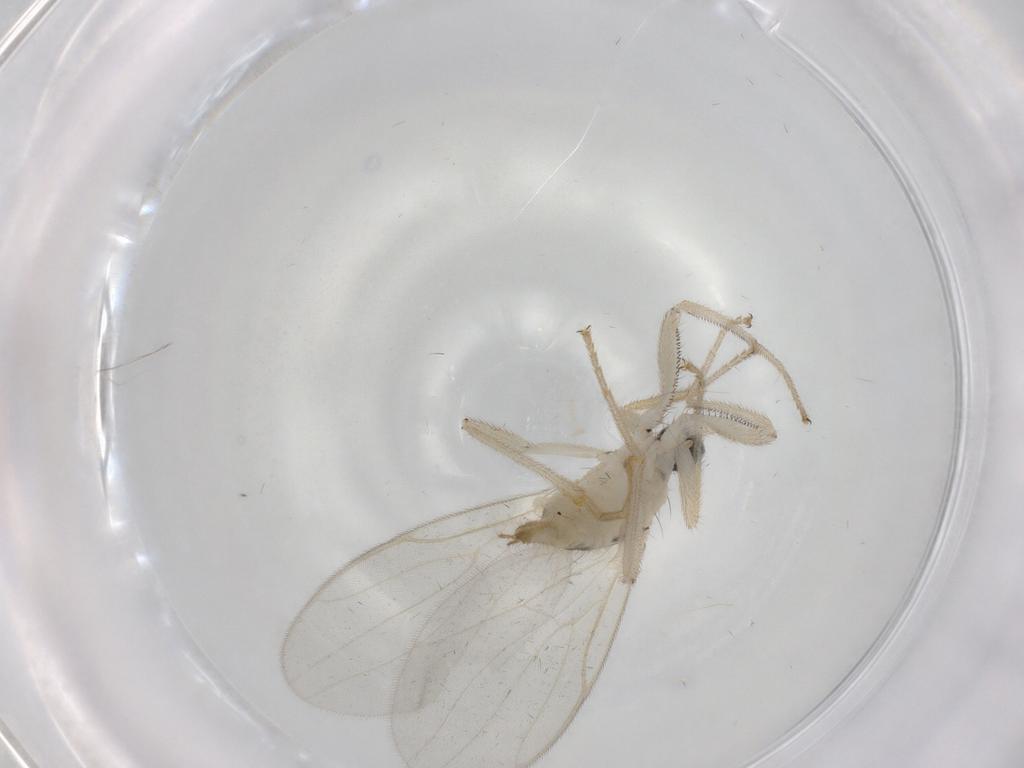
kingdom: Animalia
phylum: Arthropoda
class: Insecta
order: Diptera
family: Hybotidae
